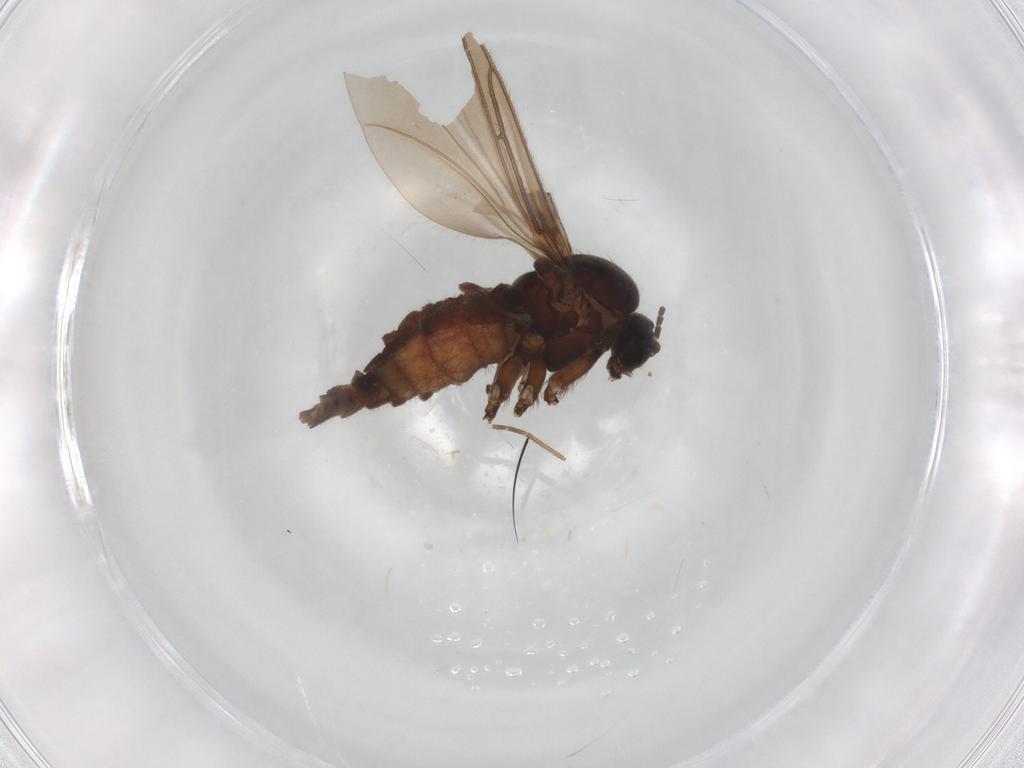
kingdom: Animalia
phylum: Arthropoda
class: Insecta
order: Diptera
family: Sciaridae
